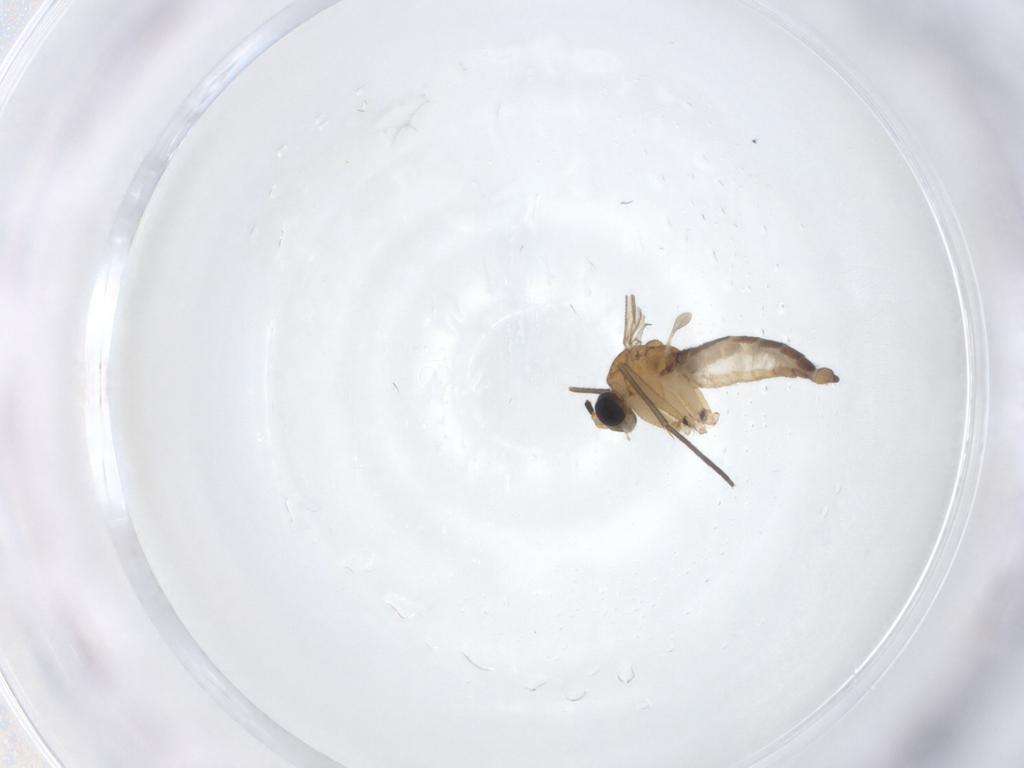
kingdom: Animalia
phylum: Arthropoda
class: Insecta
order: Diptera
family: Sciaridae
